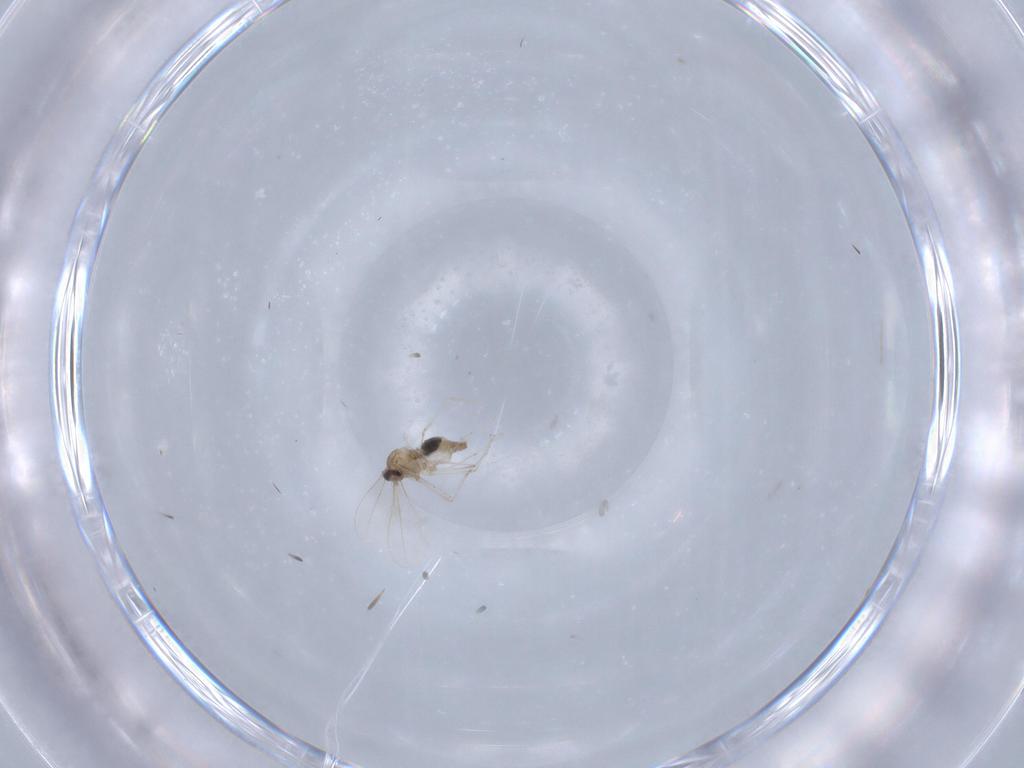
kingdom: Animalia
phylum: Arthropoda
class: Insecta
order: Diptera
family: Cecidomyiidae
